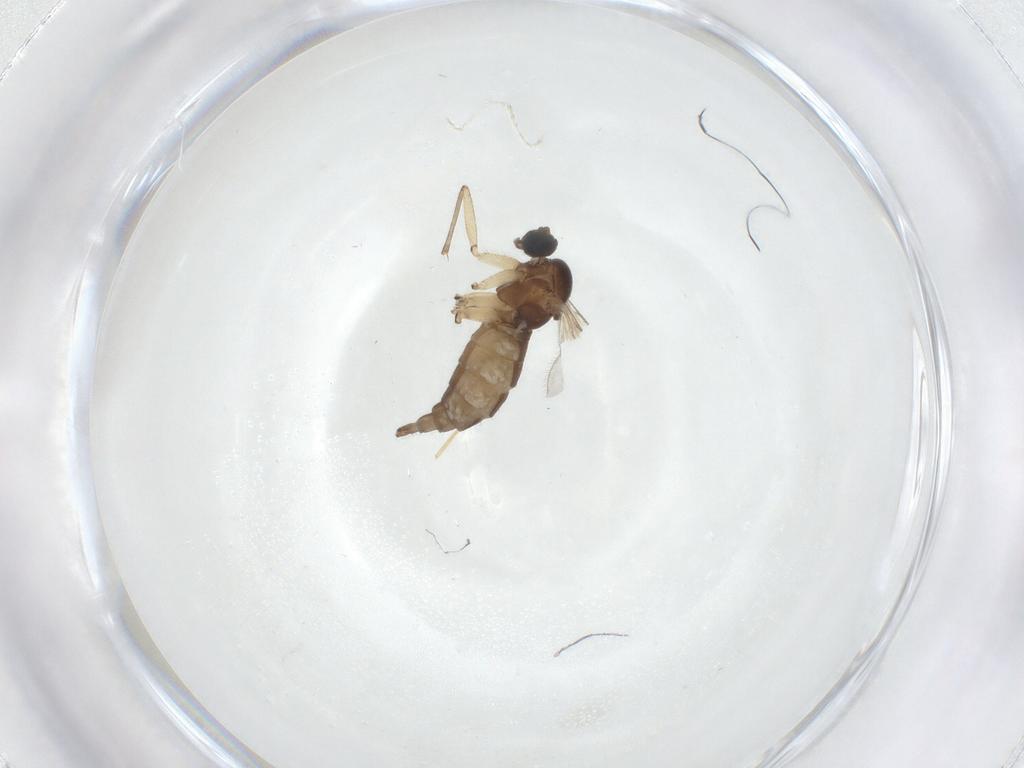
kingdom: Animalia
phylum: Arthropoda
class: Insecta
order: Diptera
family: Sciaridae
